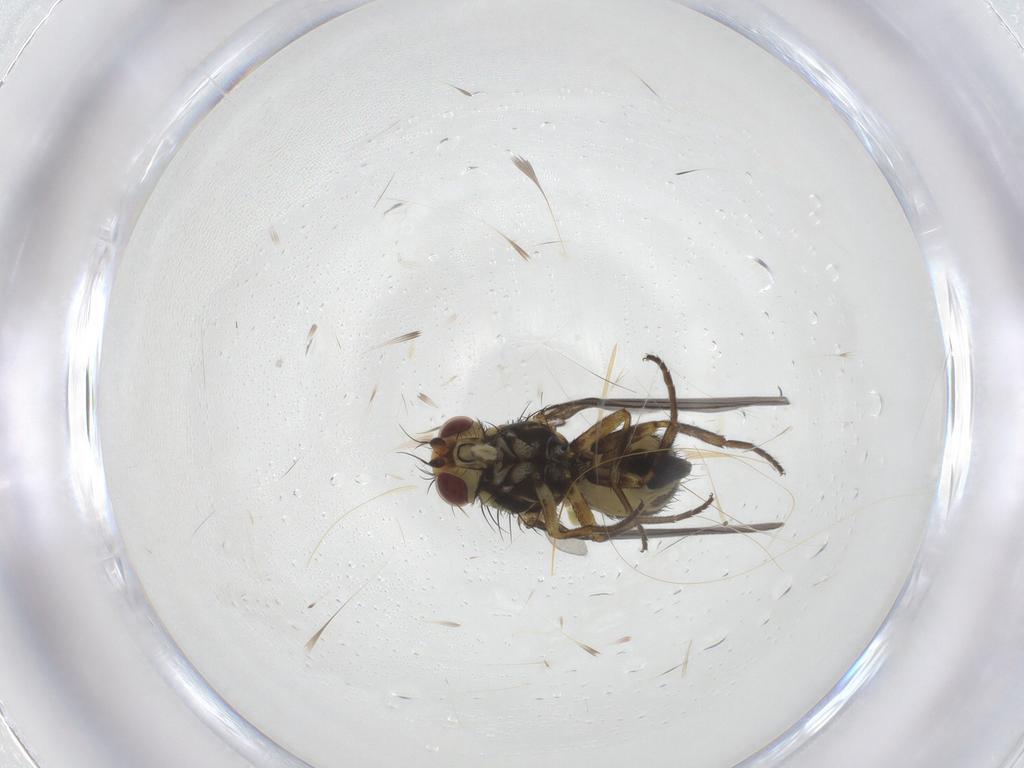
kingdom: Animalia
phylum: Arthropoda
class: Insecta
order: Diptera
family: Agromyzidae
